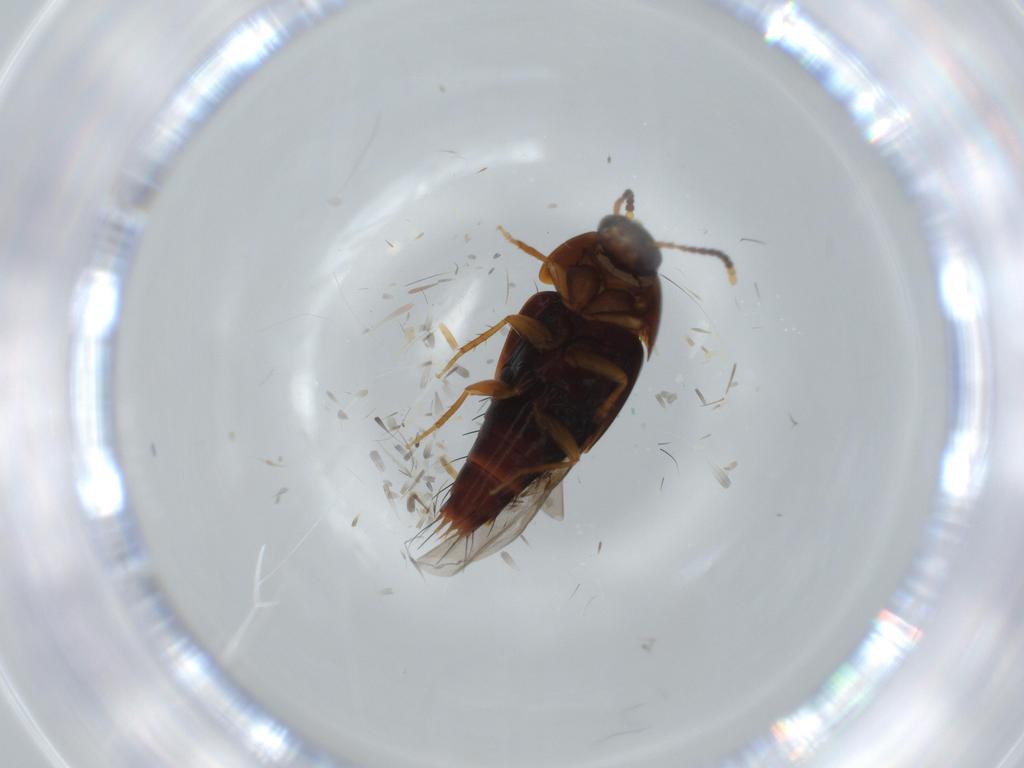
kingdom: Animalia
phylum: Arthropoda
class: Insecta
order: Coleoptera
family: Staphylinidae
